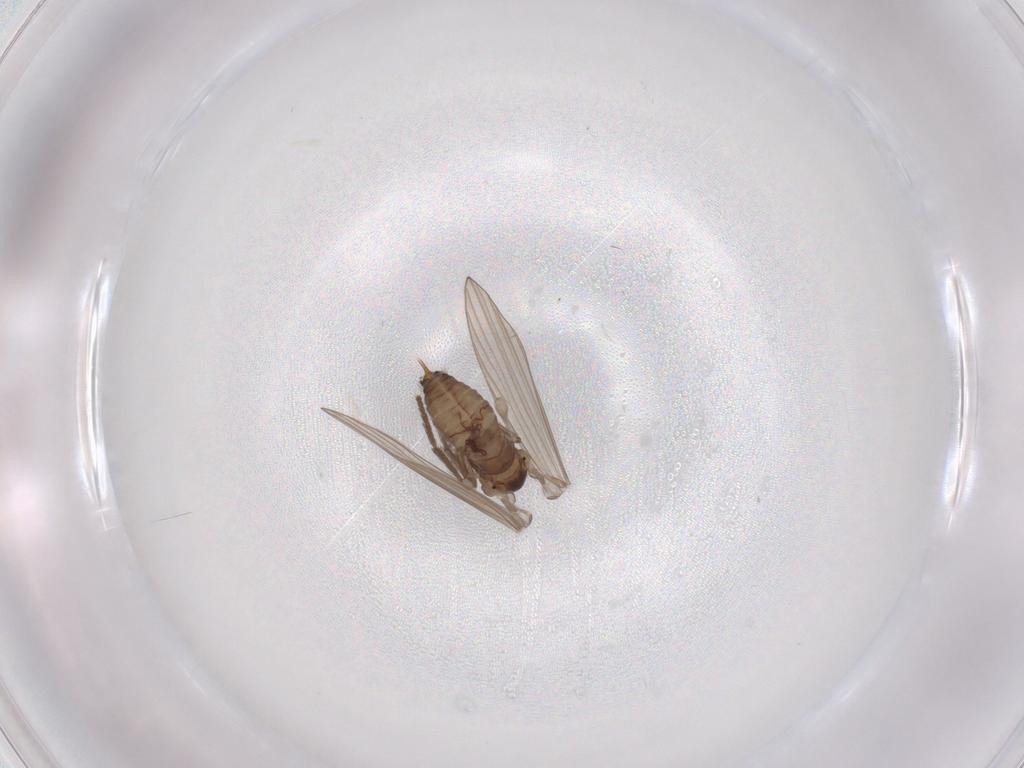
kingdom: Animalia
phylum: Arthropoda
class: Insecta
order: Diptera
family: Psychodidae
